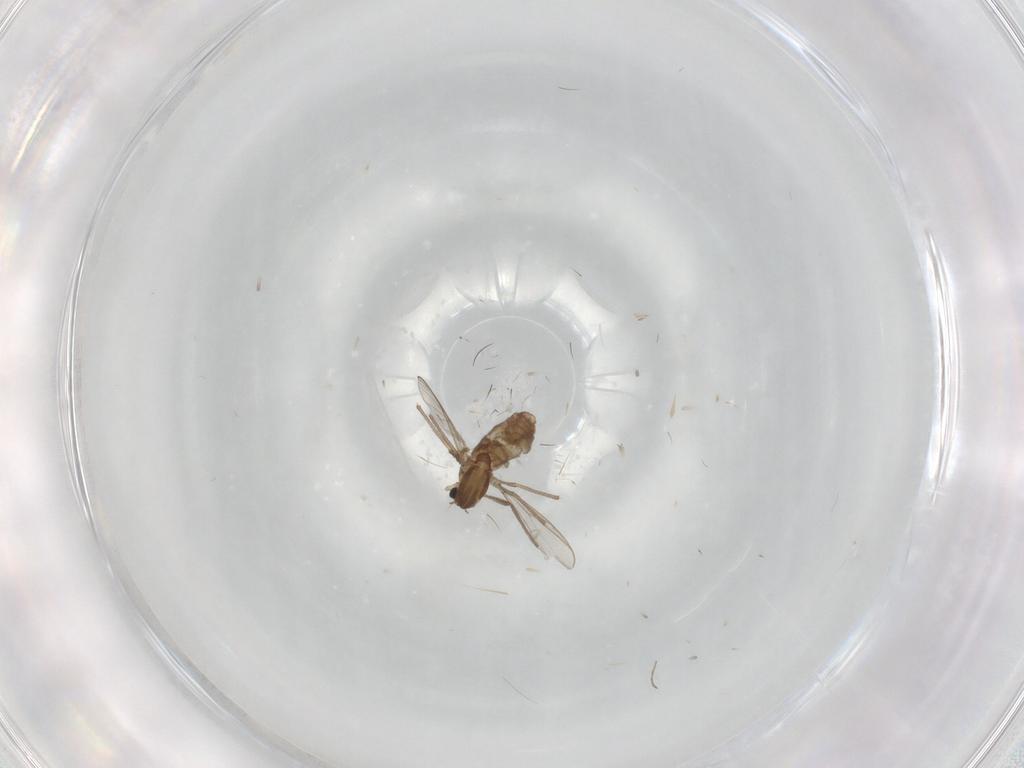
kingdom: Animalia
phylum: Arthropoda
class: Insecta
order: Diptera
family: Chironomidae
